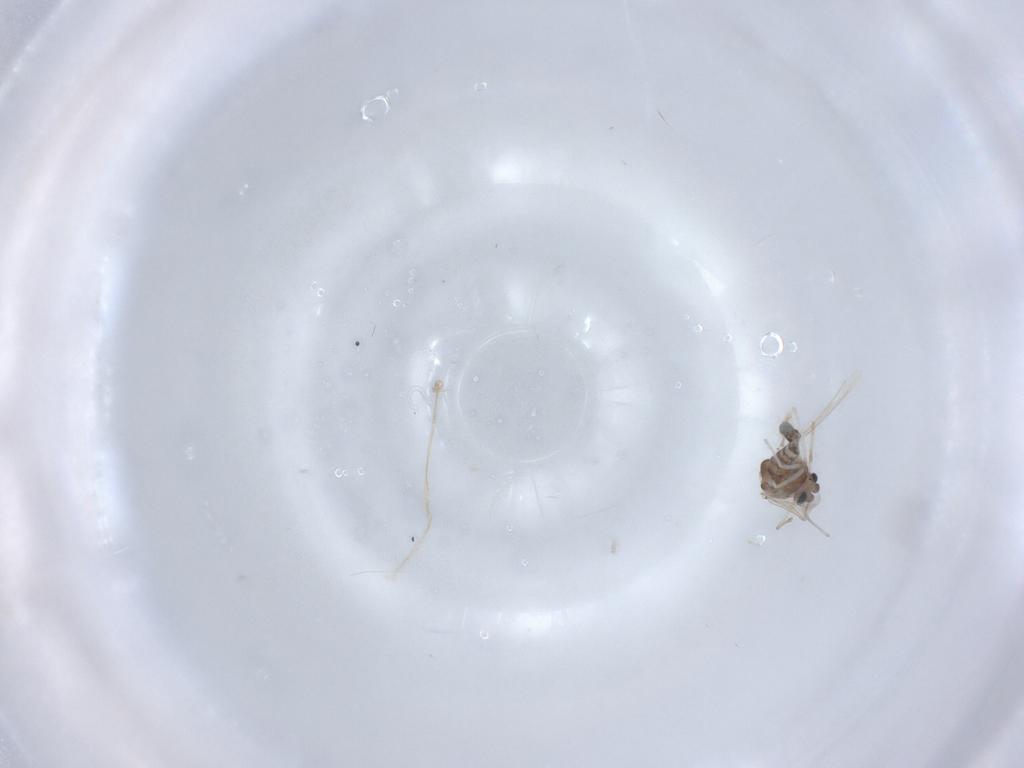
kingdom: Animalia
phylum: Arthropoda
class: Insecta
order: Diptera
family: Chironomidae
